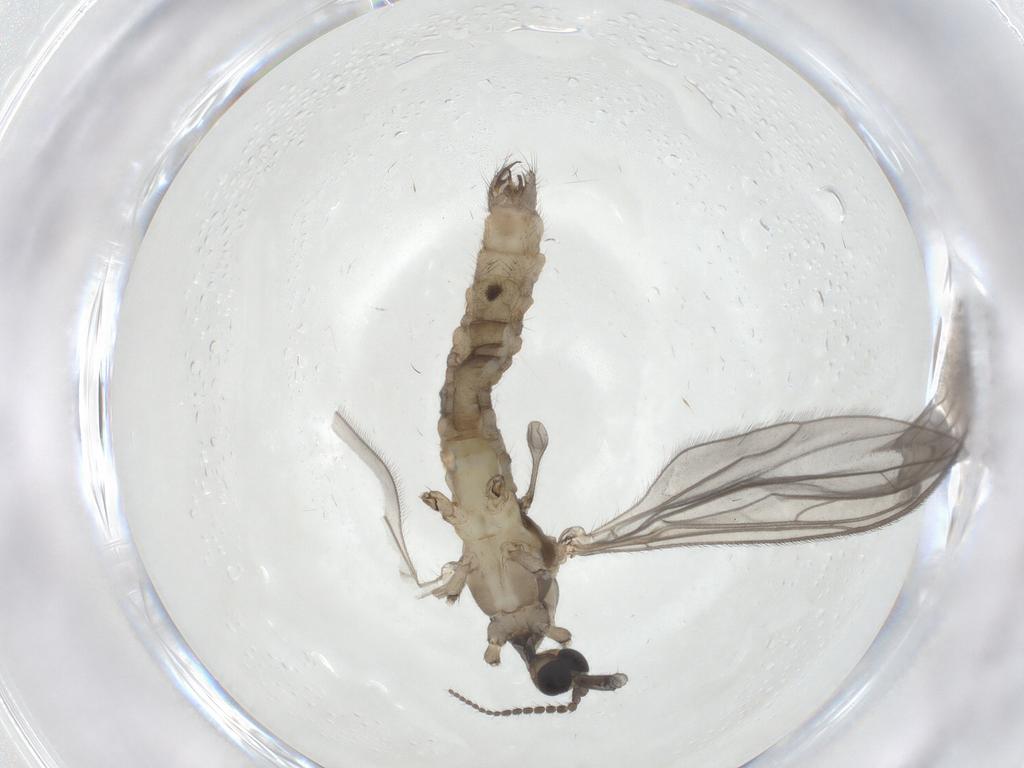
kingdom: Animalia
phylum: Arthropoda
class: Insecta
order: Diptera
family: Limoniidae
